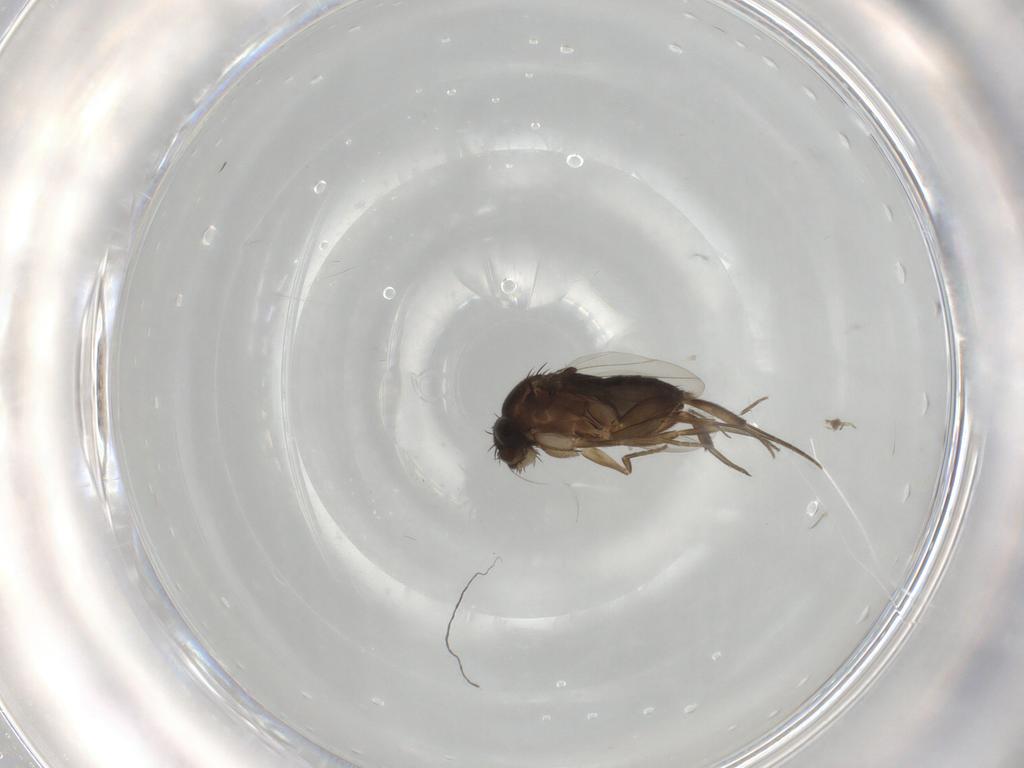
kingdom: Animalia
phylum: Arthropoda
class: Insecta
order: Diptera
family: Phoridae
